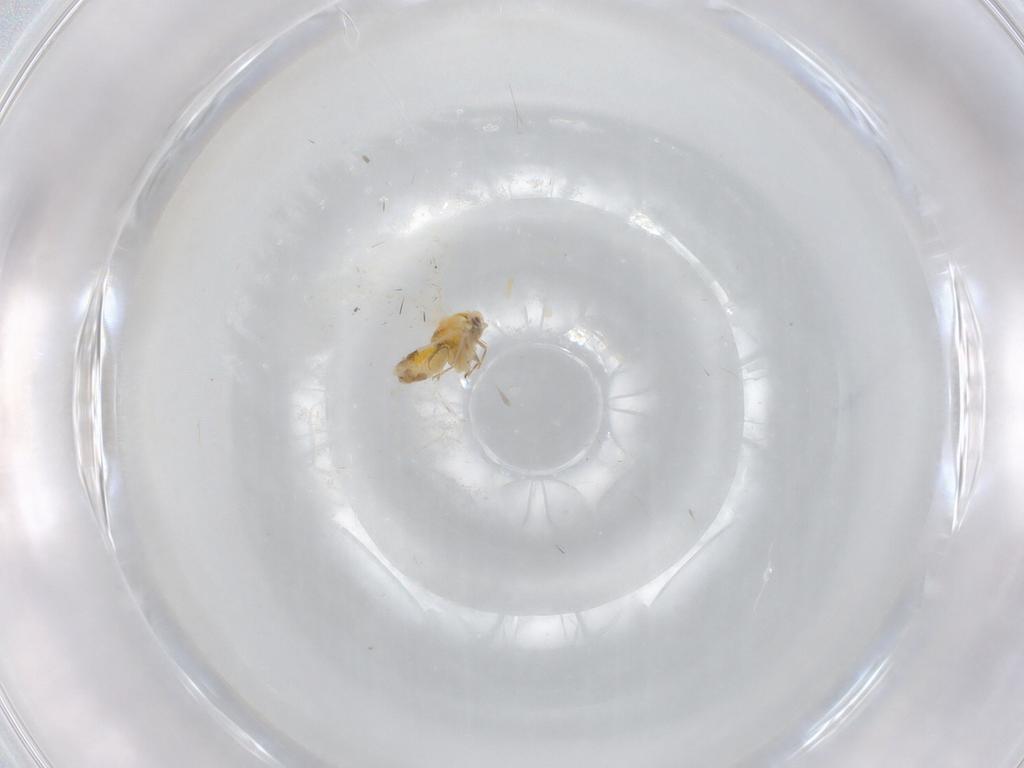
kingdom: Animalia
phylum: Arthropoda
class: Insecta
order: Hemiptera
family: Aleyrodidae
